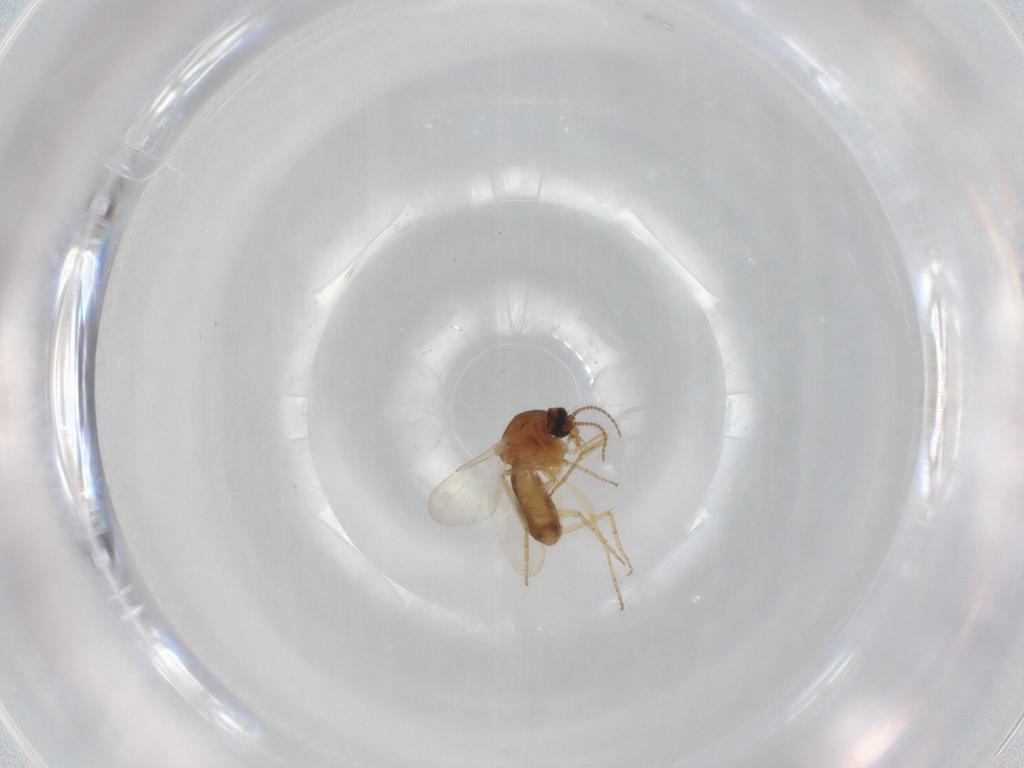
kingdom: Animalia
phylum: Arthropoda
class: Insecta
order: Diptera
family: Ceratopogonidae
